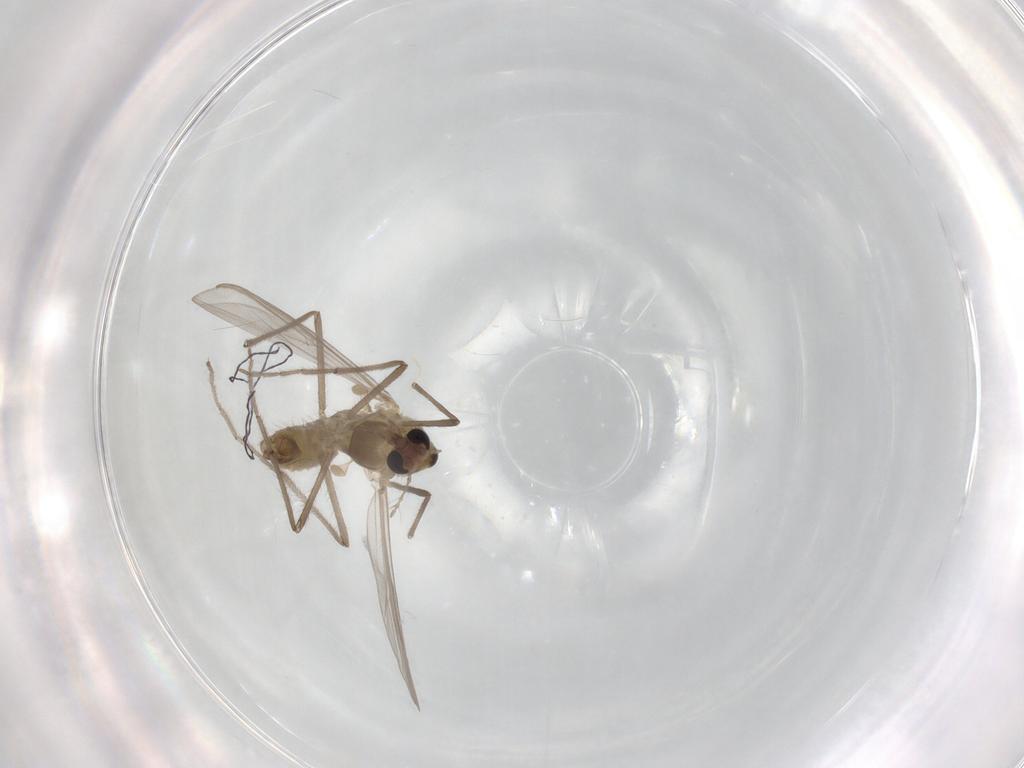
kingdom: Animalia
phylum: Arthropoda
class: Insecta
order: Diptera
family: Chironomidae
